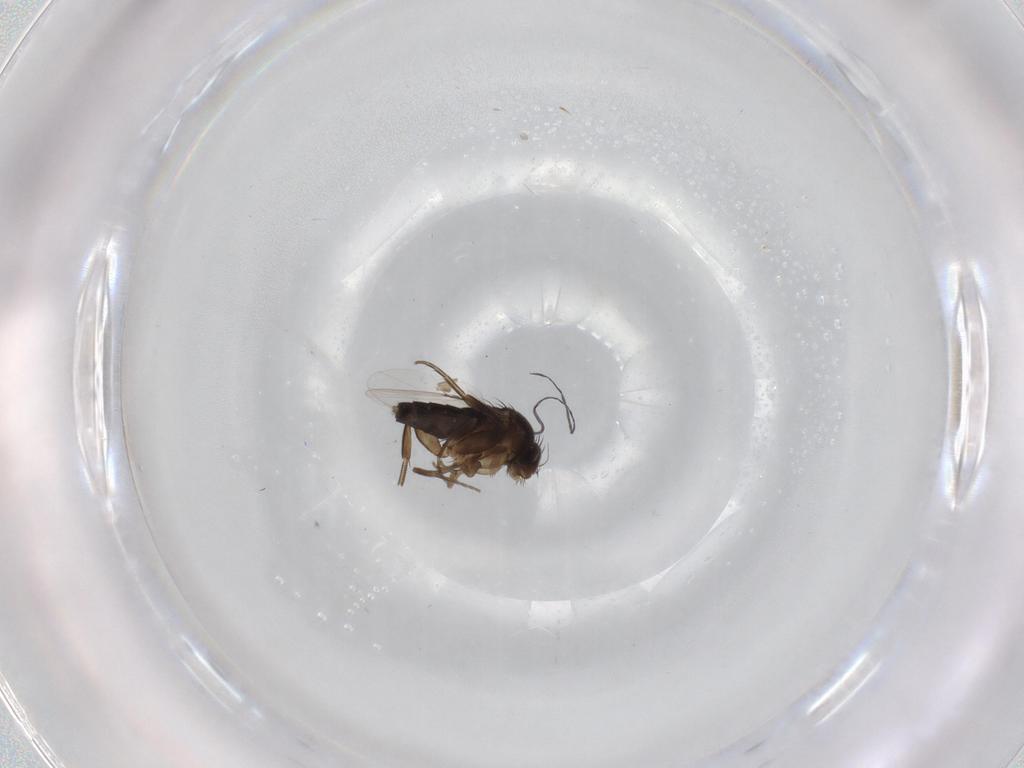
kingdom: Animalia
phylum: Arthropoda
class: Insecta
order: Diptera
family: Phoridae
